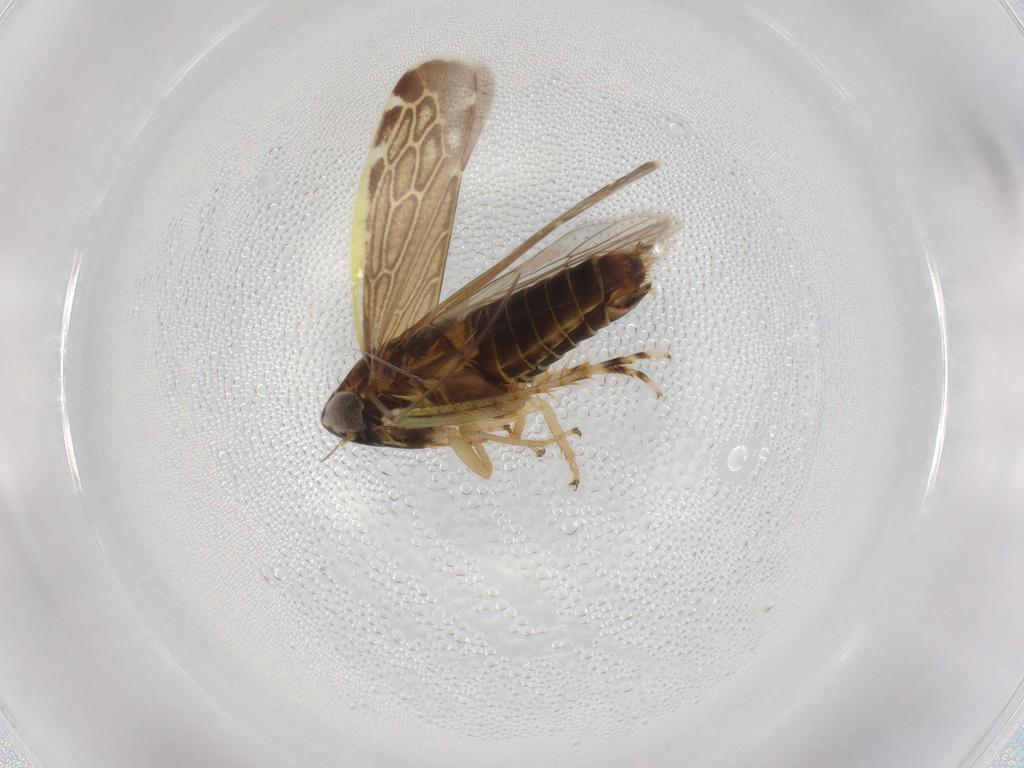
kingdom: Animalia
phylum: Arthropoda
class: Insecta
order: Hemiptera
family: Cicadellidae
